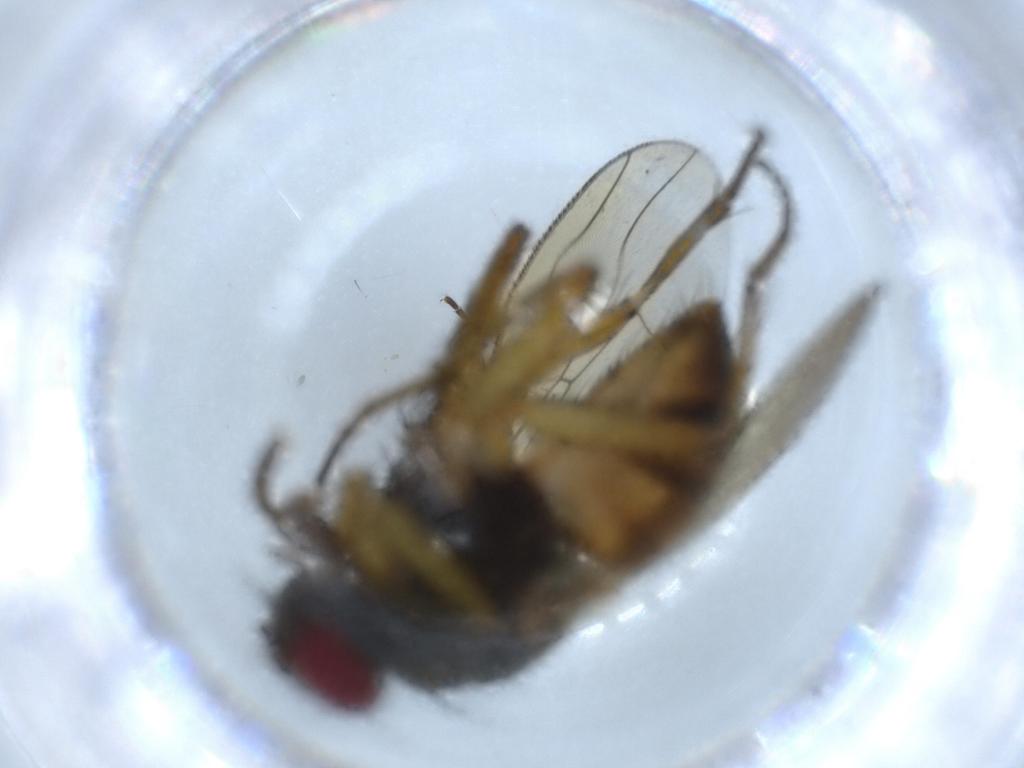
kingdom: Animalia
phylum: Arthropoda
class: Insecta
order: Diptera
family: Muscidae
